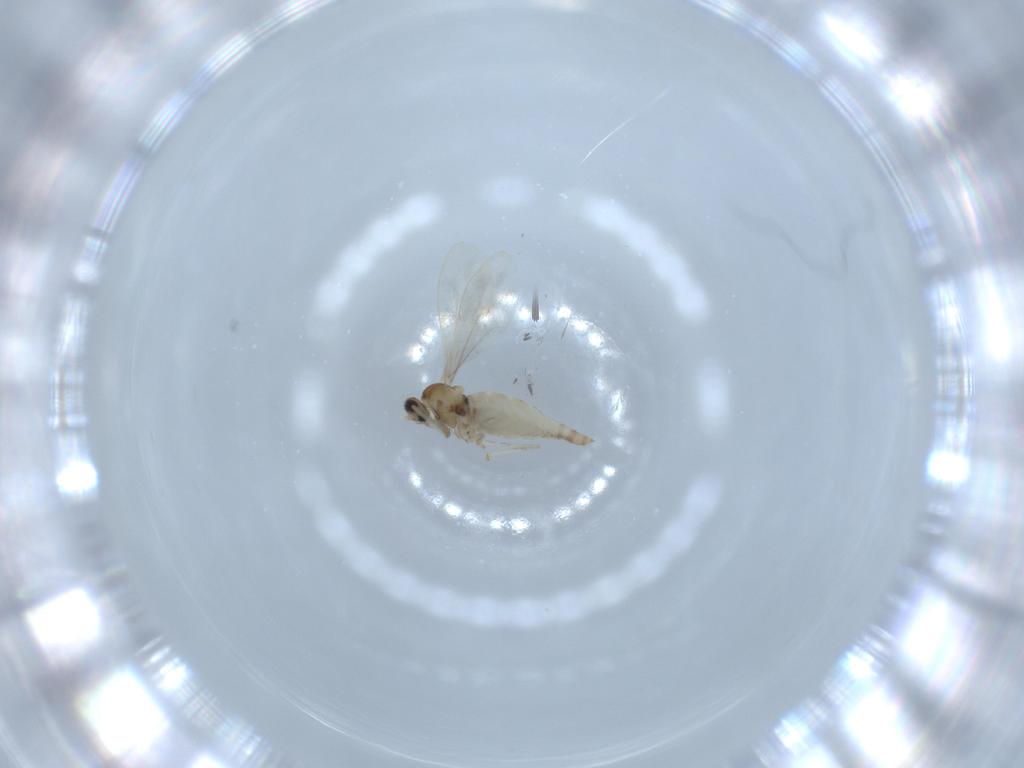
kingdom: Animalia
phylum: Arthropoda
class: Insecta
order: Diptera
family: Cecidomyiidae
